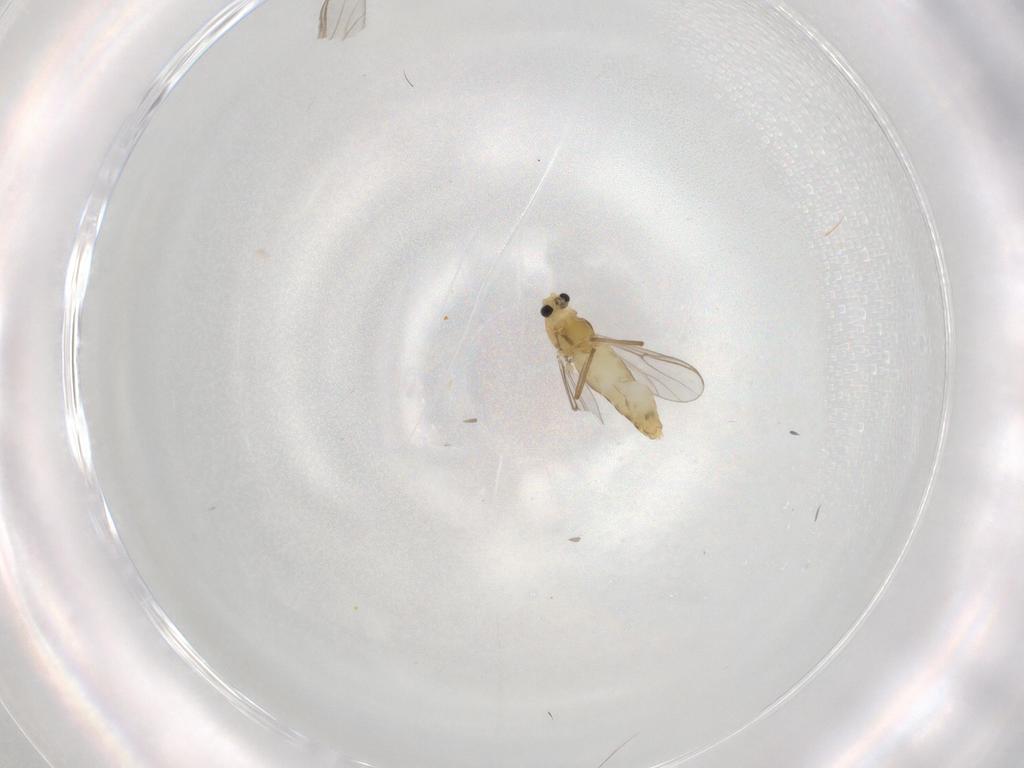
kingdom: Animalia
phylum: Arthropoda
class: Insecta
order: Diptera
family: Chironomidae
